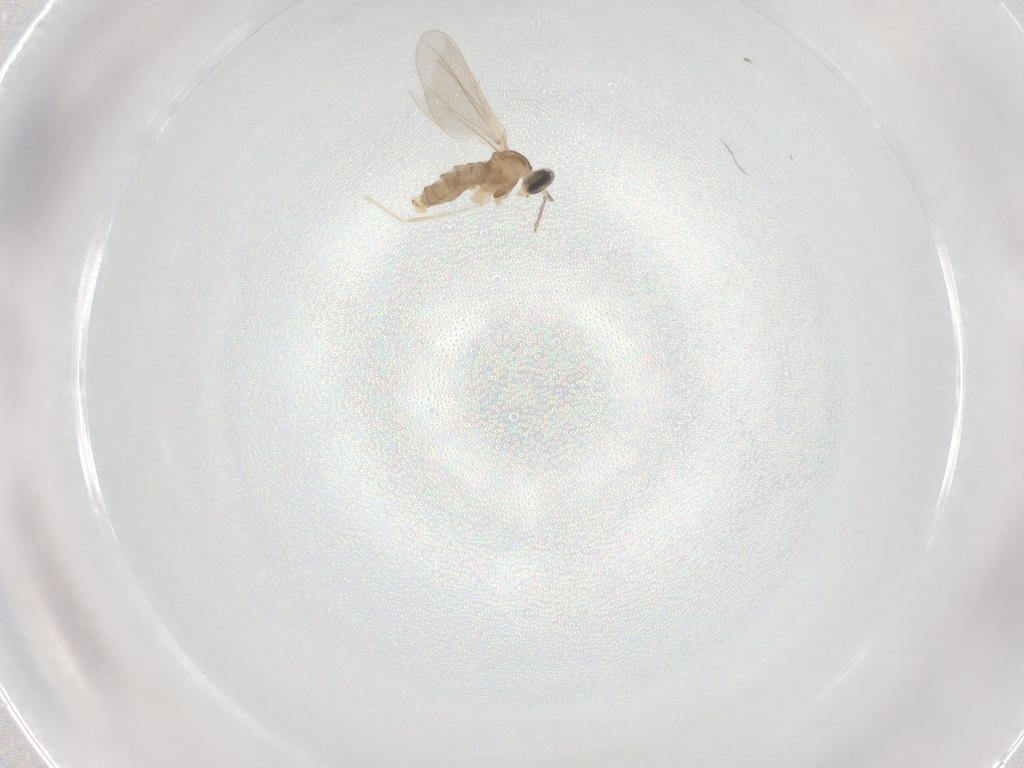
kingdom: Animalia
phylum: Arthropoda
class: Insecta
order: Diptera
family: Cecidomyiidae
